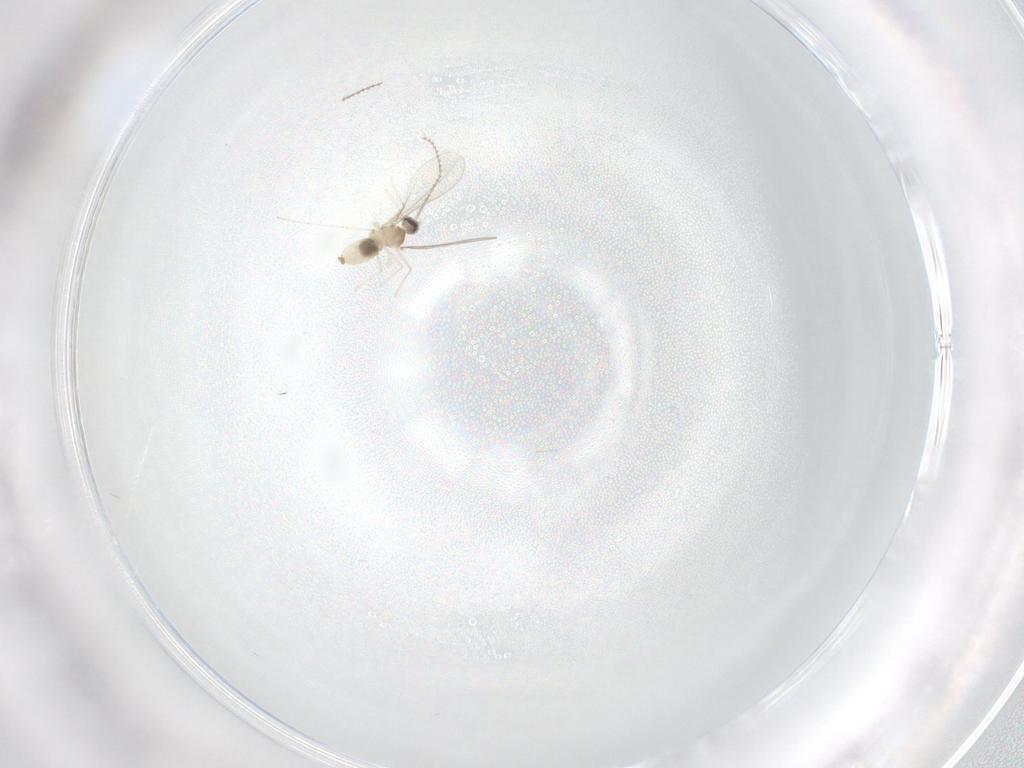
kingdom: Animalia
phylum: Arthropoda
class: Insecta
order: Diptera
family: Cecidomyiidae
